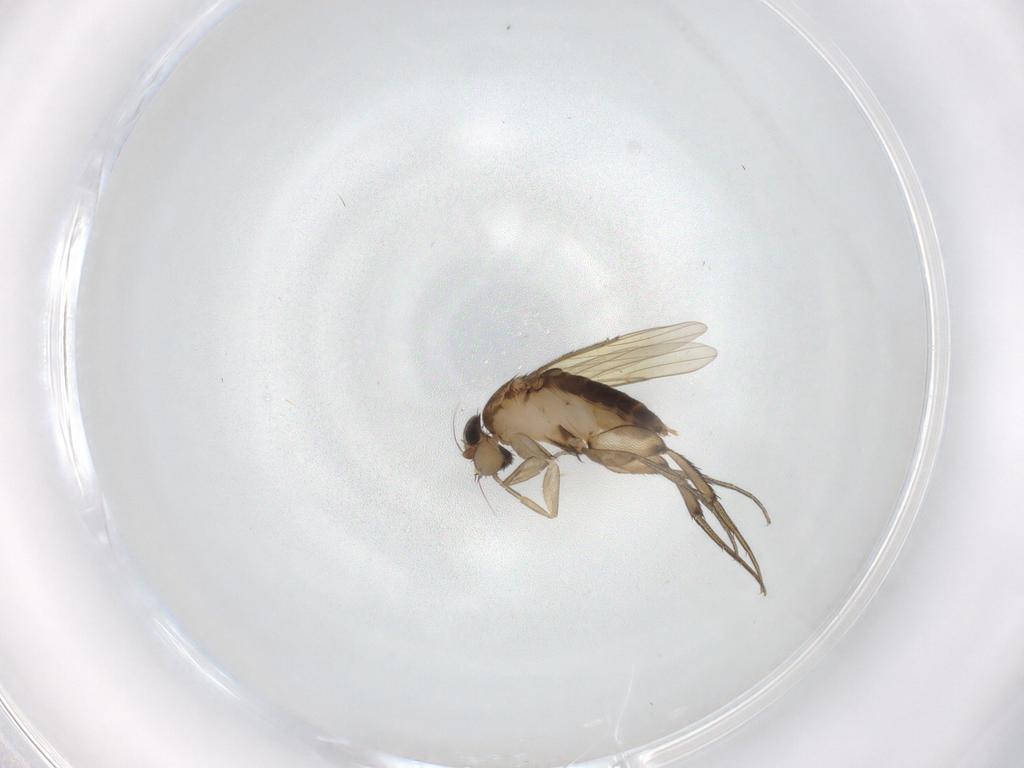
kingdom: Animalia
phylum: Arthropoda
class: Insecta
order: Diptera
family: Phoridae
